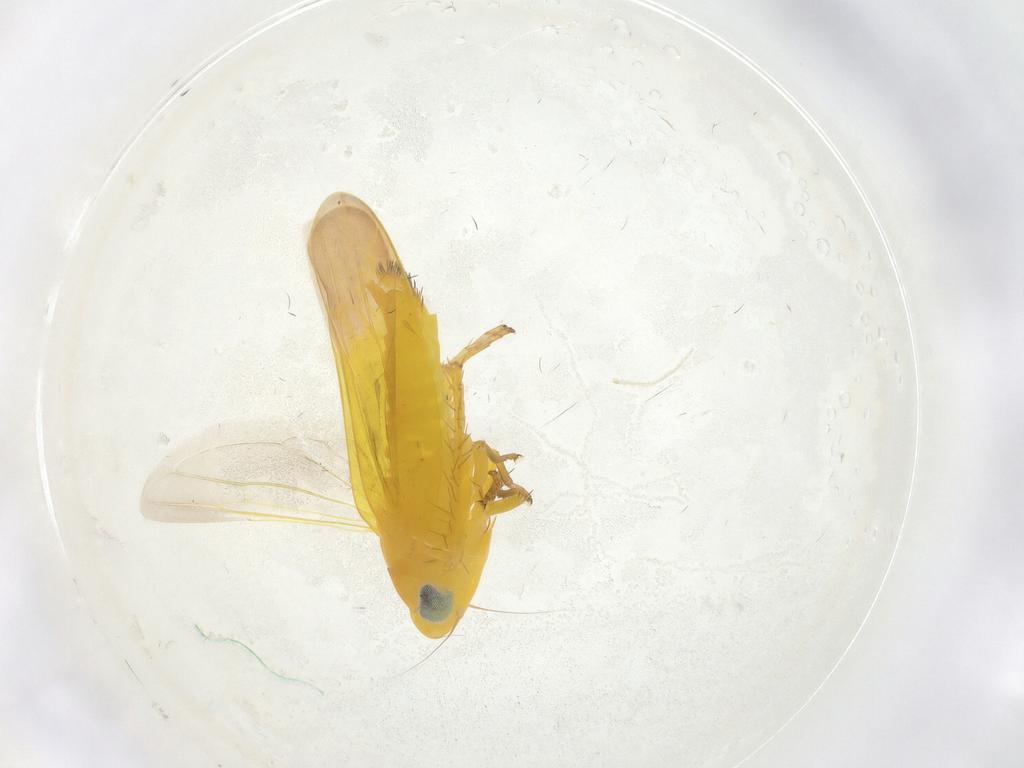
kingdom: Animalia
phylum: Arthropoda
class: Insecta
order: Hemiptera
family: Cicadellidae
